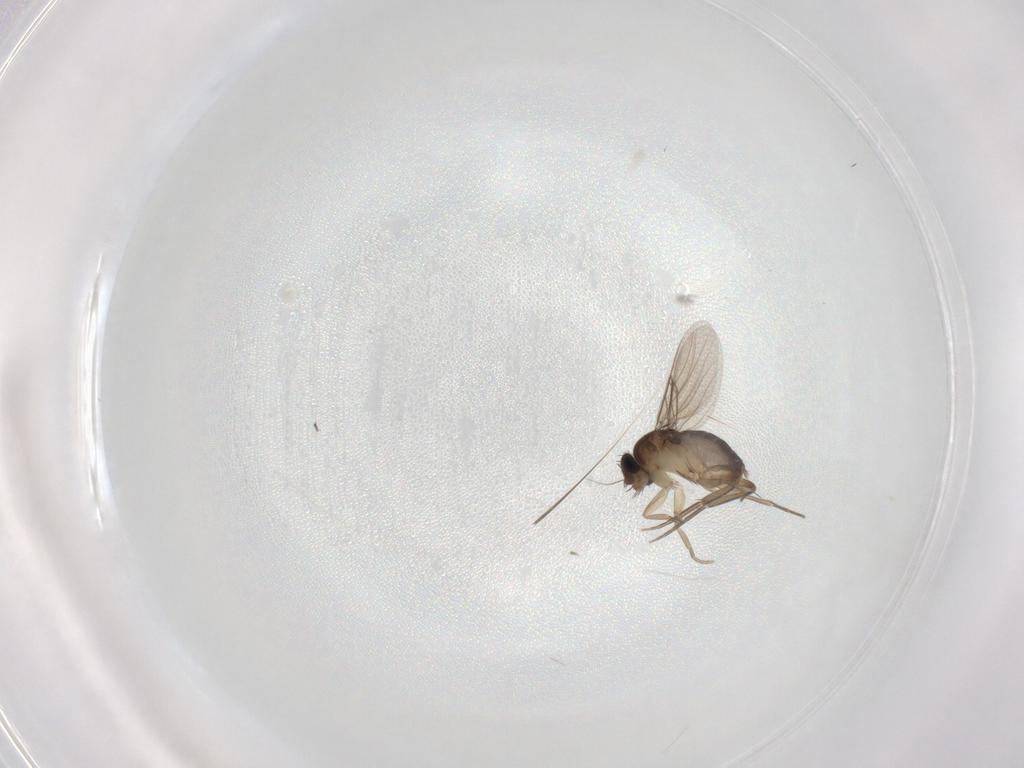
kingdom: Animalia
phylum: Arthropoda
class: Insecta
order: Diptera
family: Phoridae
